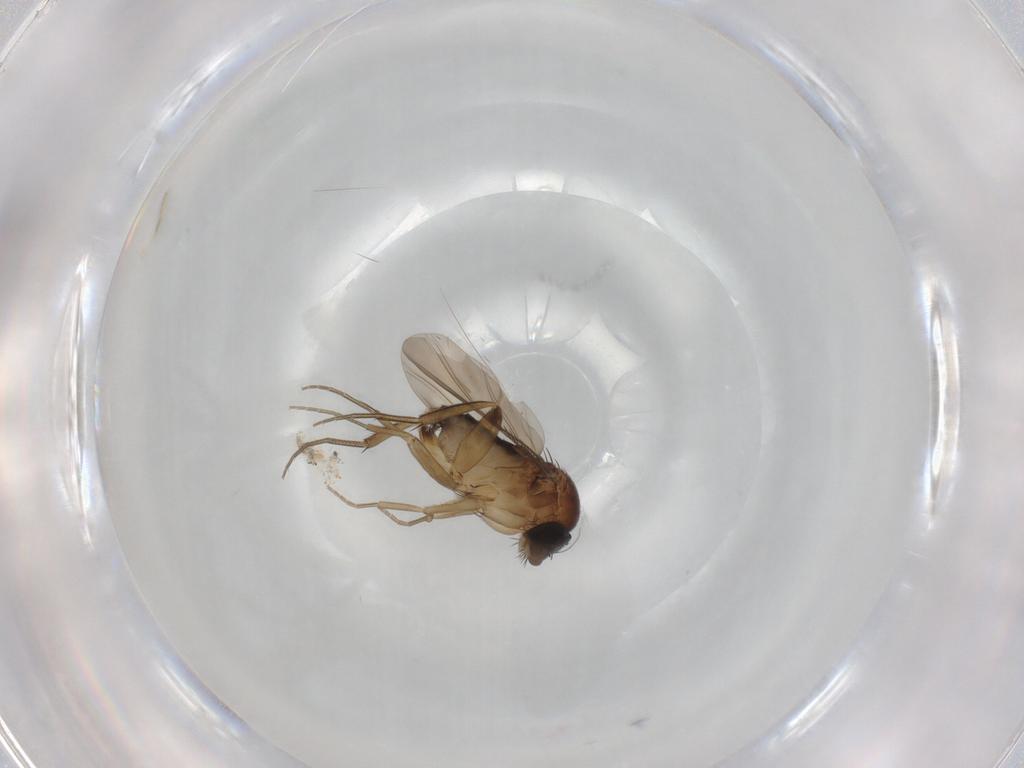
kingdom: Animalia
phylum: Arthropoda
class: Insecta
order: Diptera
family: Phoridae
